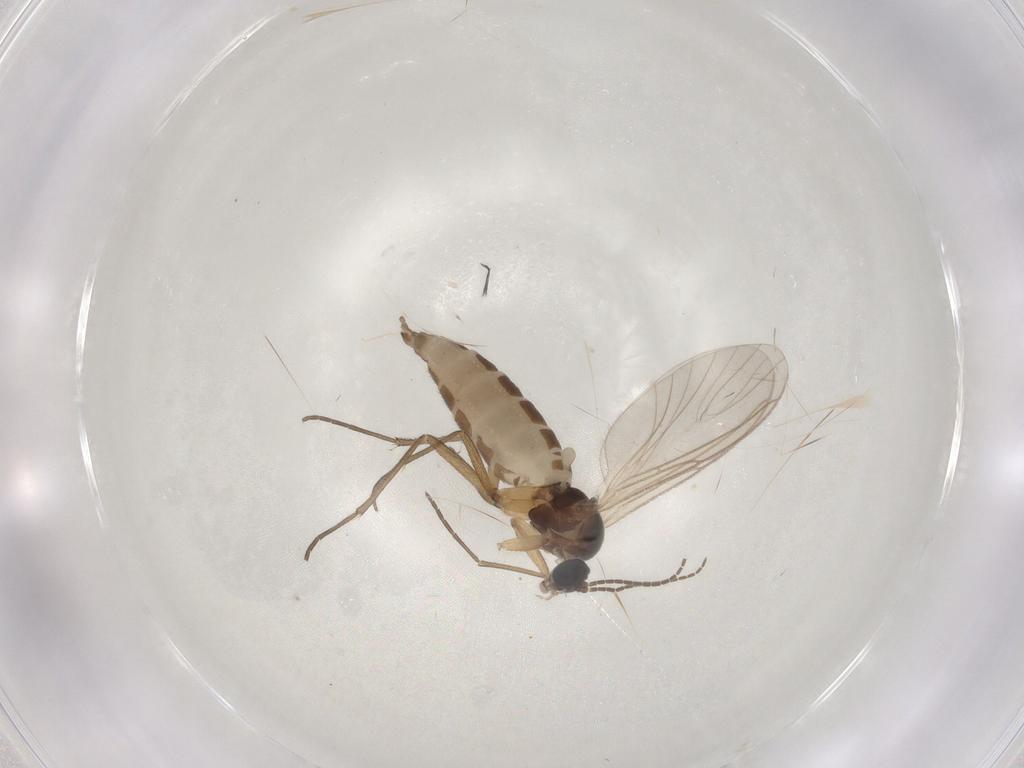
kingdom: Animalia
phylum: Arthropoda
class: Insecta
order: Diptera
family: Sciaridae
